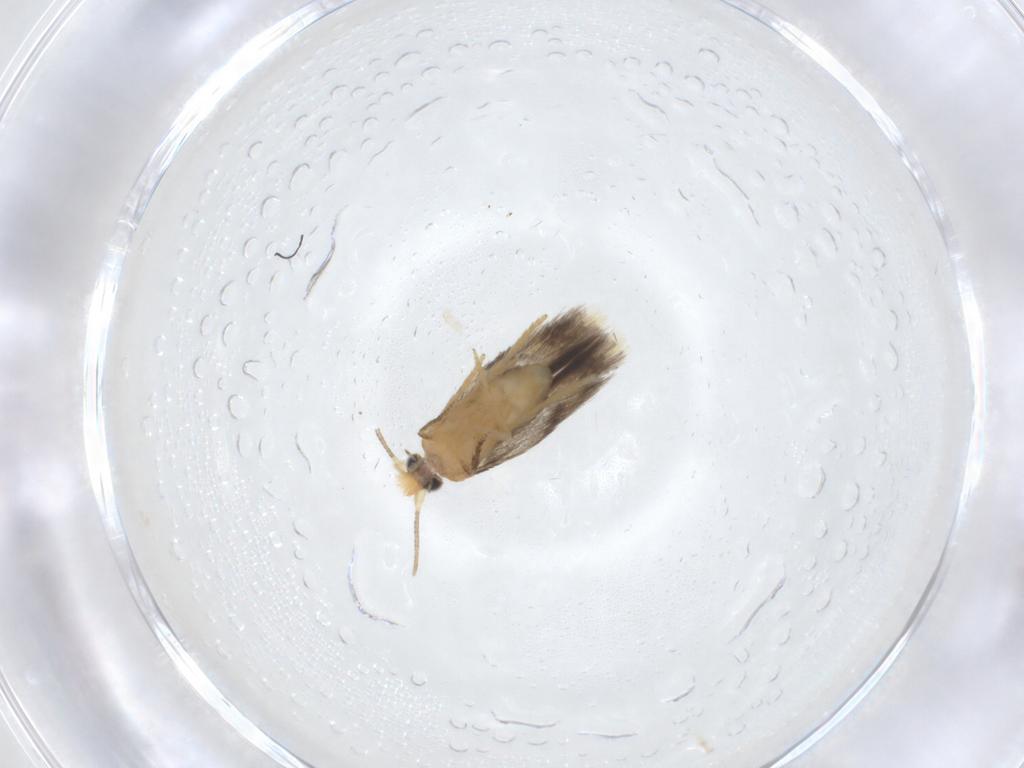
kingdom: Animalia
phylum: Arthropoda
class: Insecta
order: Lepidoptera
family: Nepticulidae
